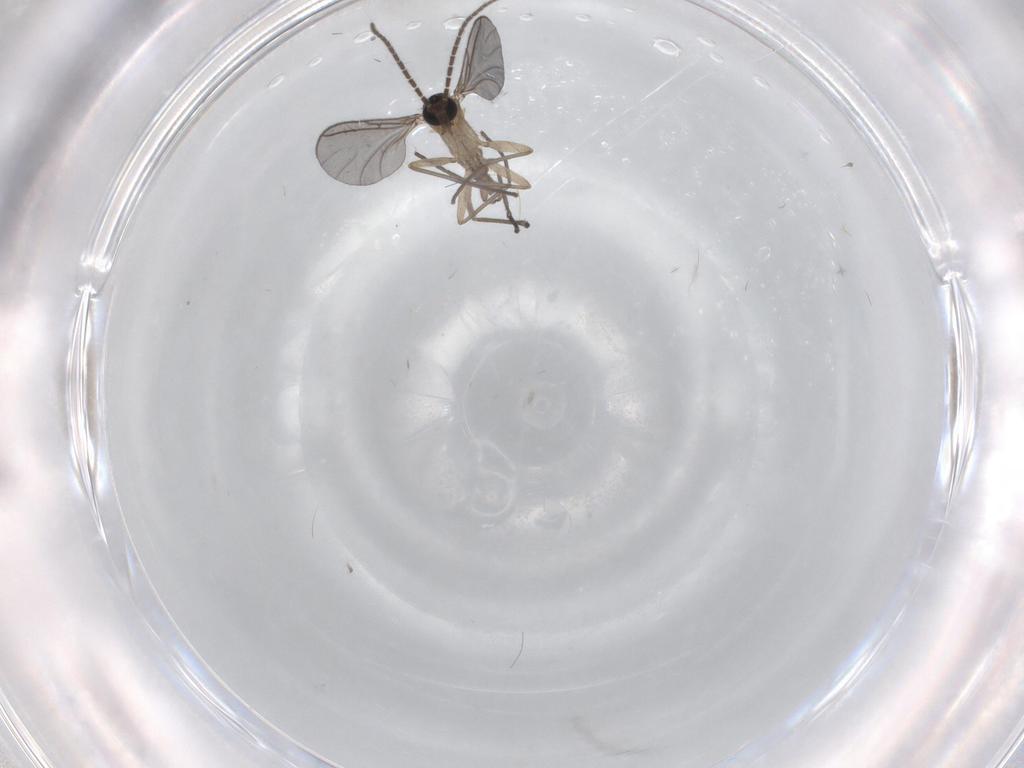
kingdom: Animalia
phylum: Arthropoda
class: Insecta
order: Diptera
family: Sciaridae
